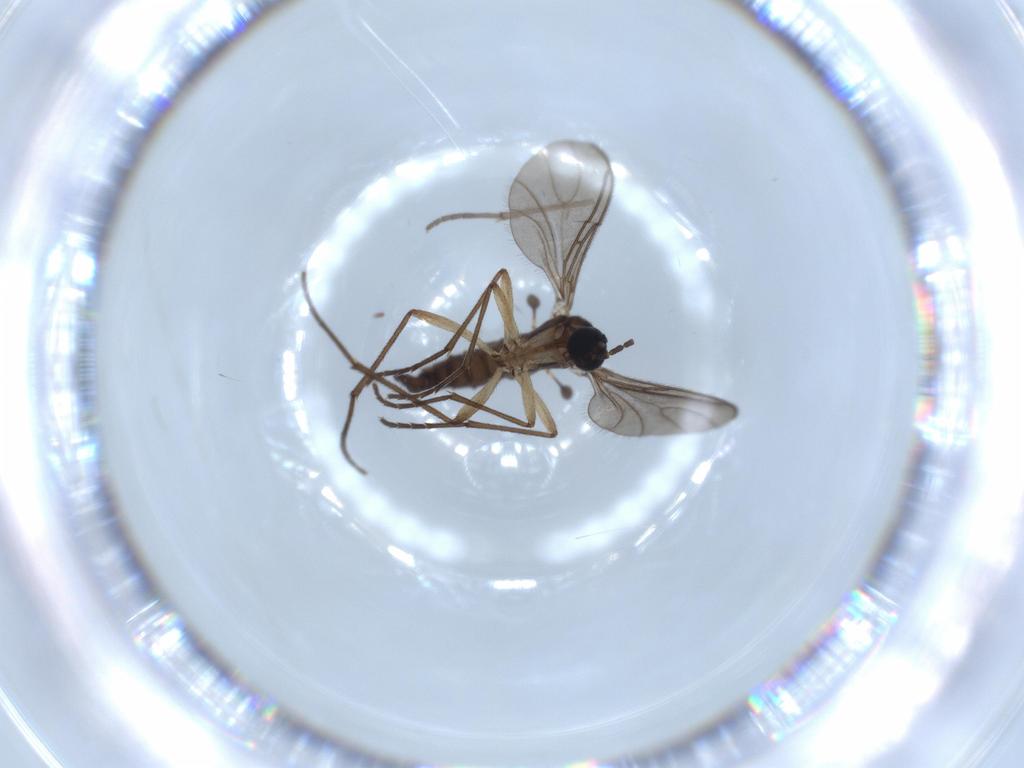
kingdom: Animalia
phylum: Arthropoda
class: Insecta
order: Diptera
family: Sciaridae
